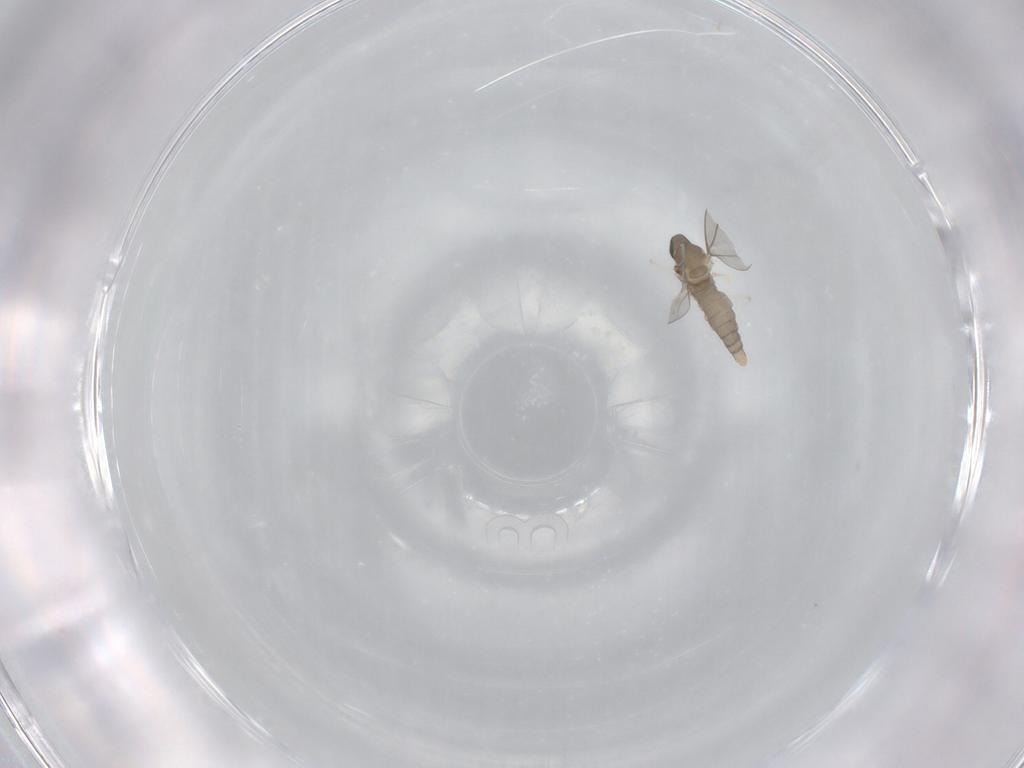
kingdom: Animalia
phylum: Arthropoda
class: Insecta
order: Diptera
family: Cecidomyiidae
